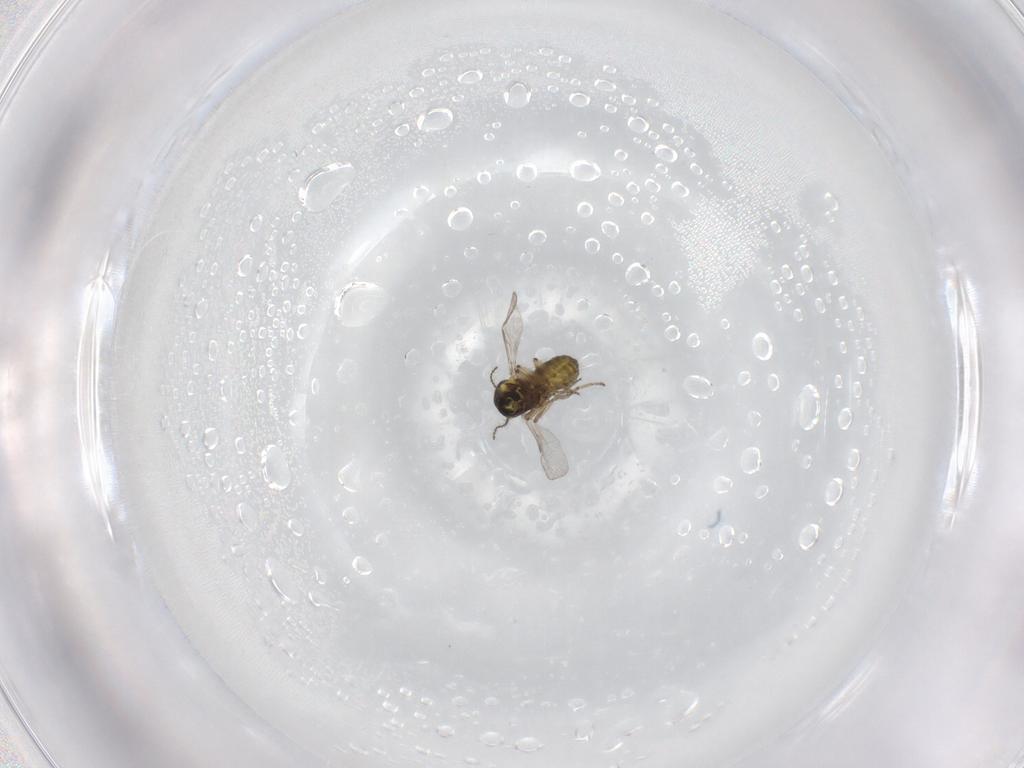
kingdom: Animalia
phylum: Arthropoda
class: Insecta
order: Diptera
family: Ceratopogonidae
